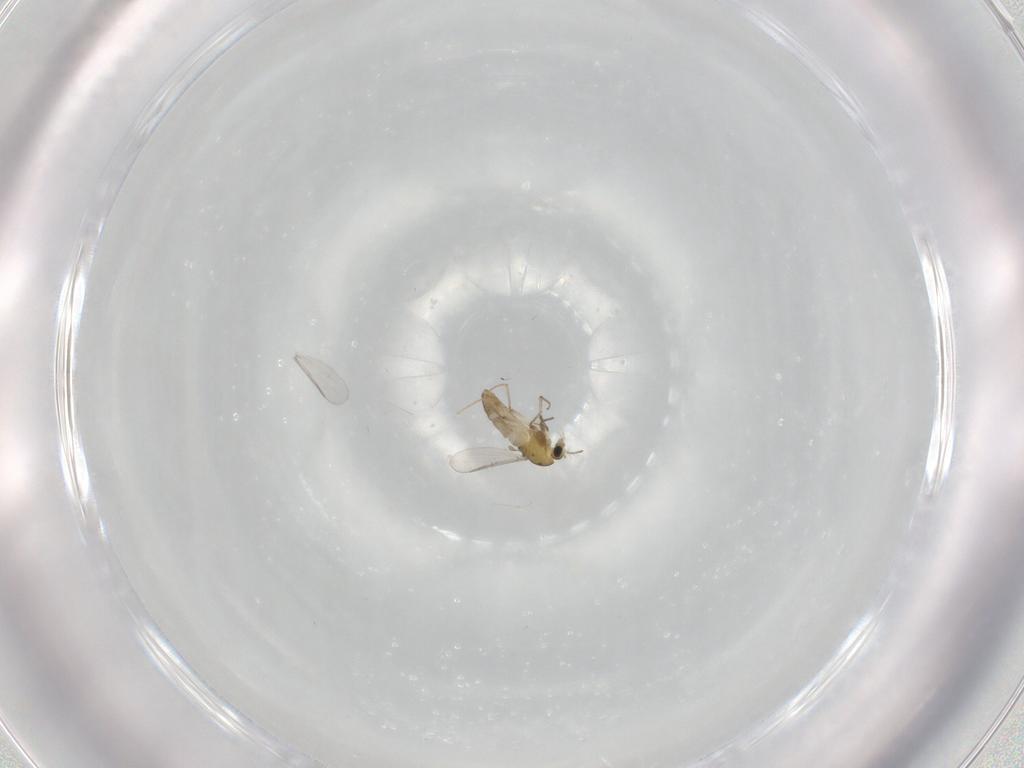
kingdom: Animalia
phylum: Arthropoda
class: Insecta
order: Diptera
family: Chironomidae
